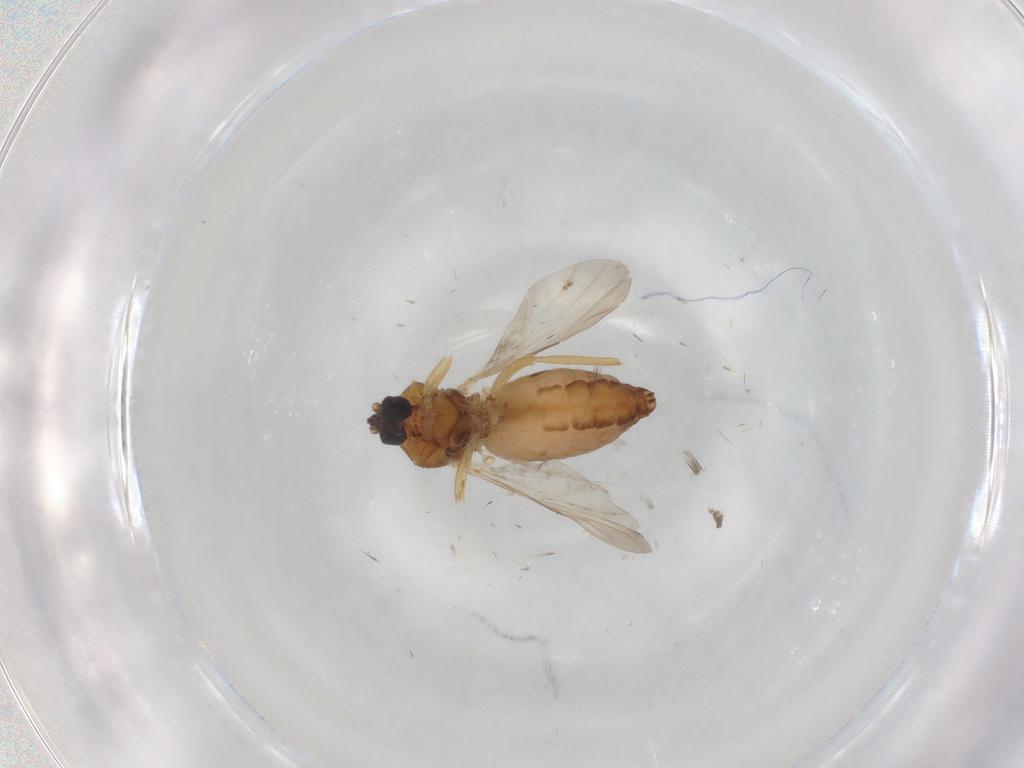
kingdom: Animalia
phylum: Arthropoda
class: Insecta
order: Diptera
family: Ceratopogonidae
